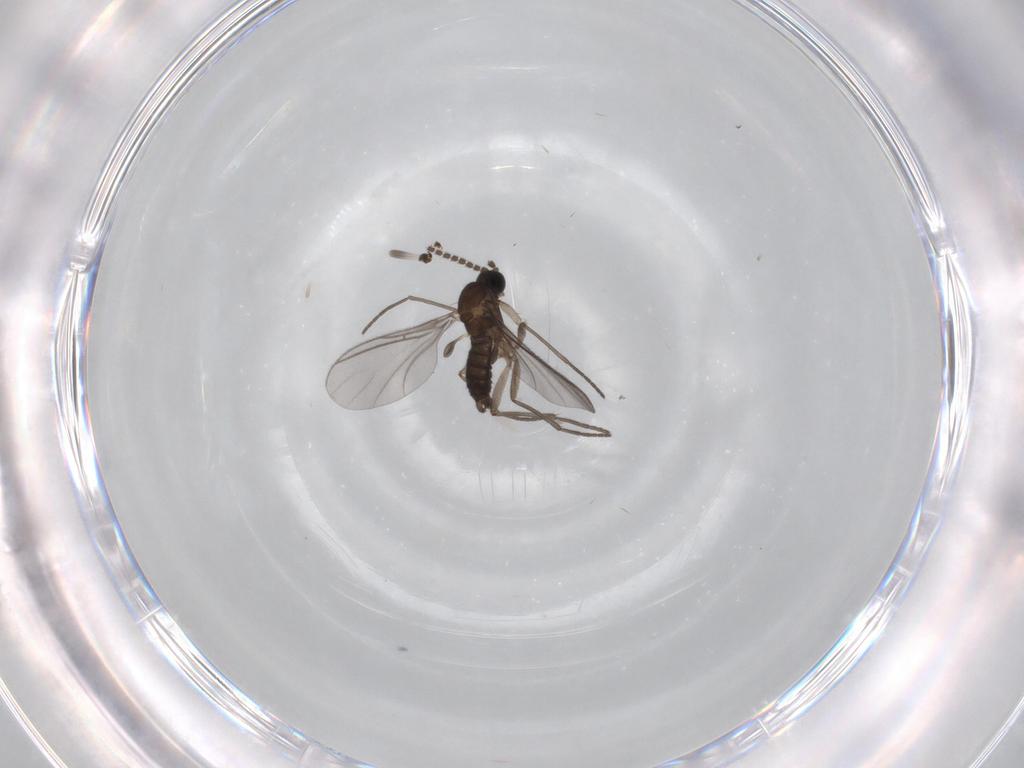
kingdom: Animalia
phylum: Arthropoda
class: Insecta
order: Diptera
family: Sciaridae
